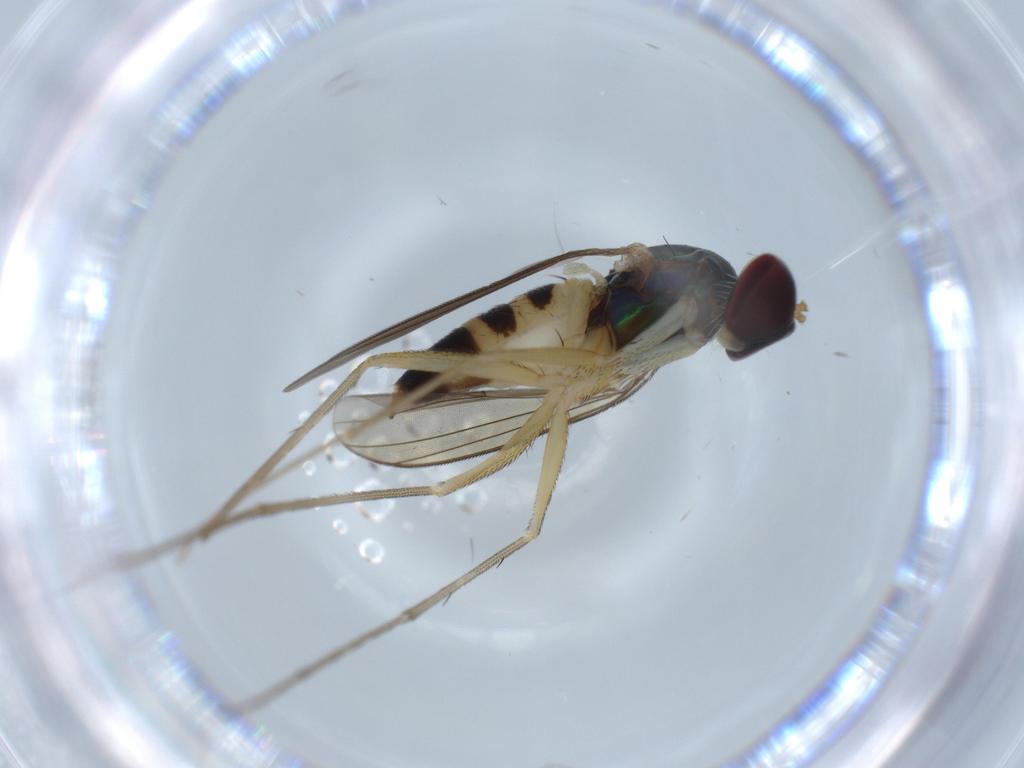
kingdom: Animalia
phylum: Arthropoda
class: Insecta
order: Diptera
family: Dolichopodidae
